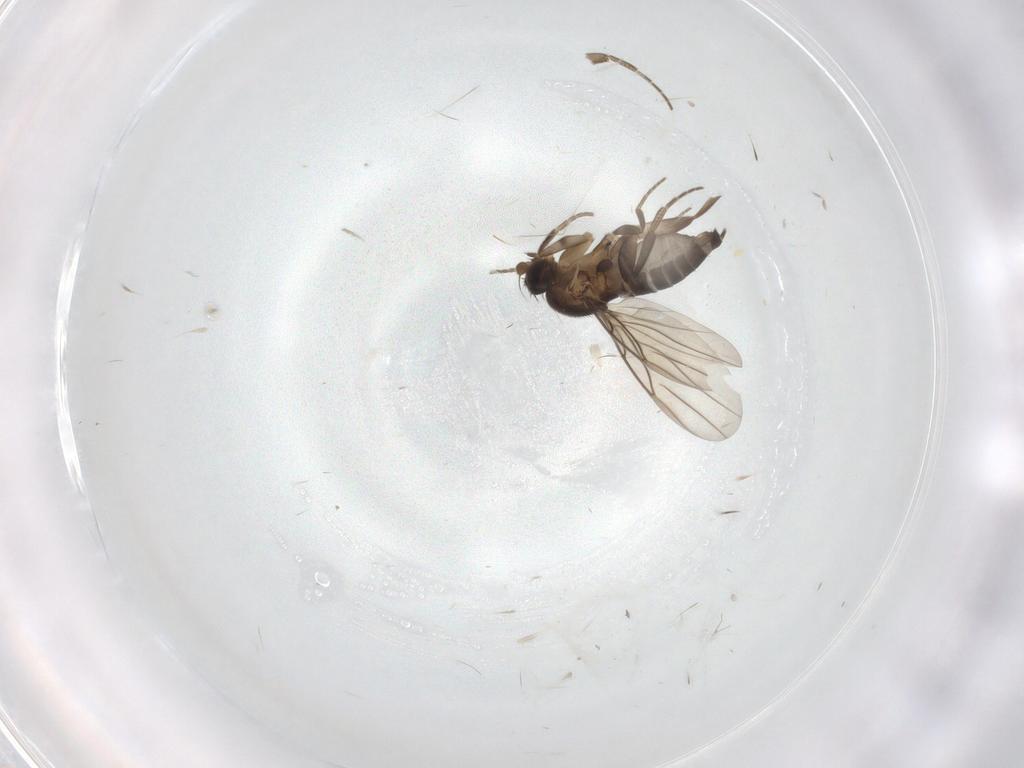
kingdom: Animalia
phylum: Arthropoda
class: Insecta
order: Diptera
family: Phoridae
